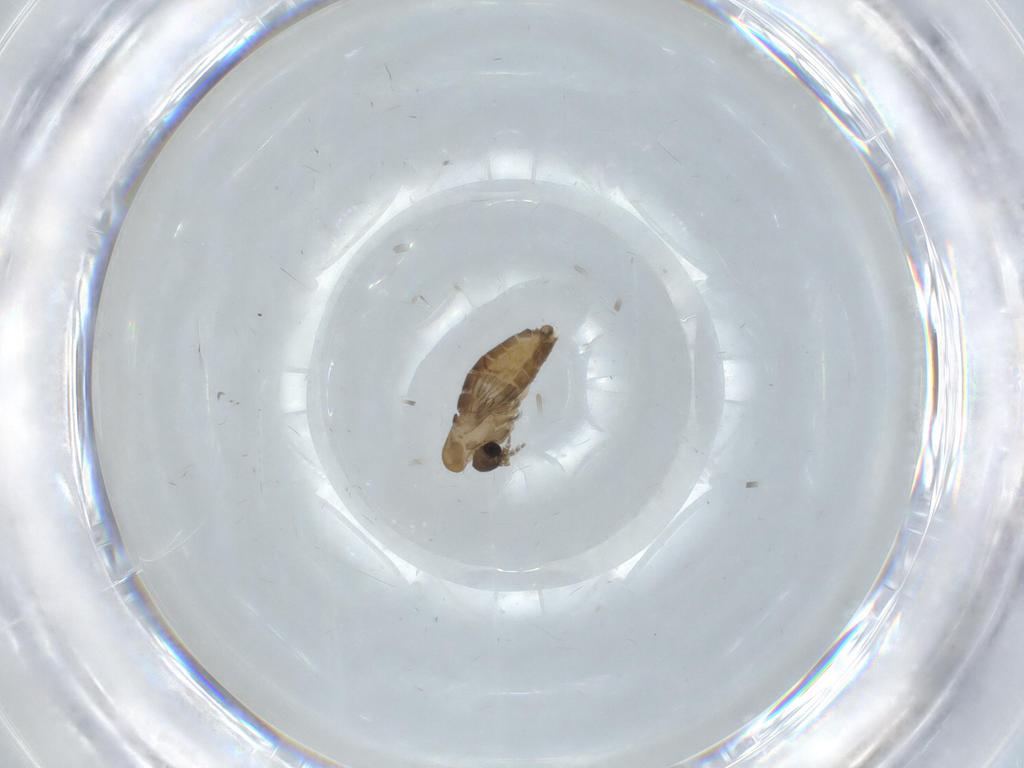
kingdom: Animalia
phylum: Arthropoda
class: Insecta
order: Diptera
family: Psychodidae
